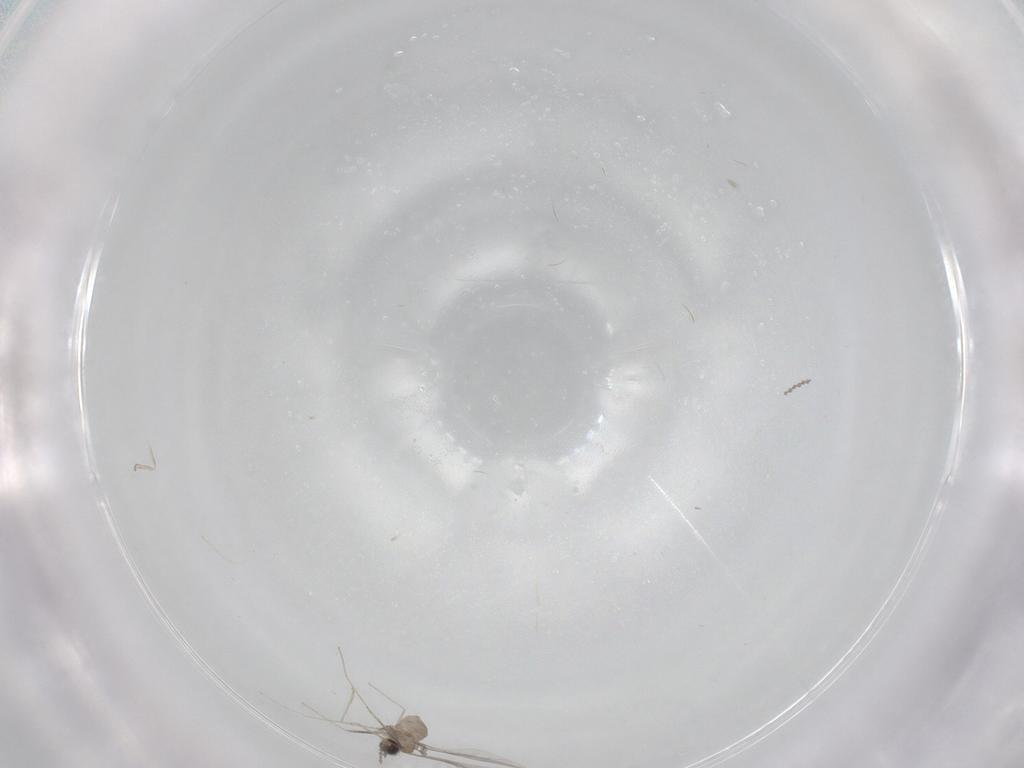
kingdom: Animalia
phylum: Arthropoda
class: Insecta
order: Diptera
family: Cecidomyiidae
